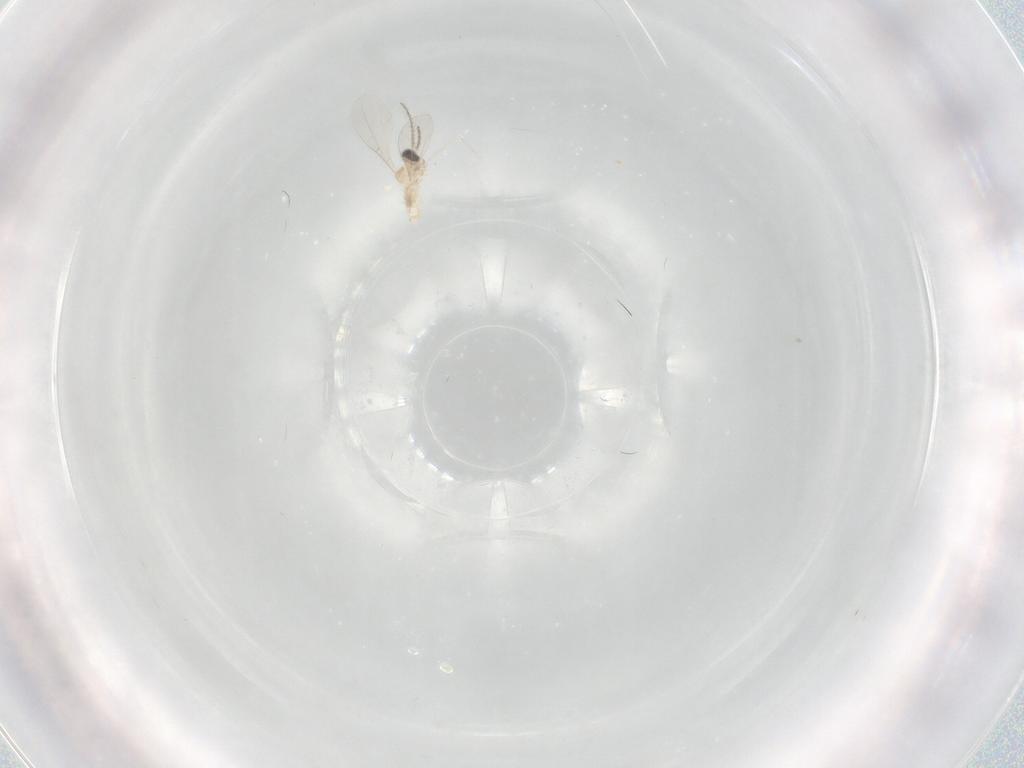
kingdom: Animalia
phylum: Arthropoda
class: Insecta
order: Diptera
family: Cecidomyiidae
